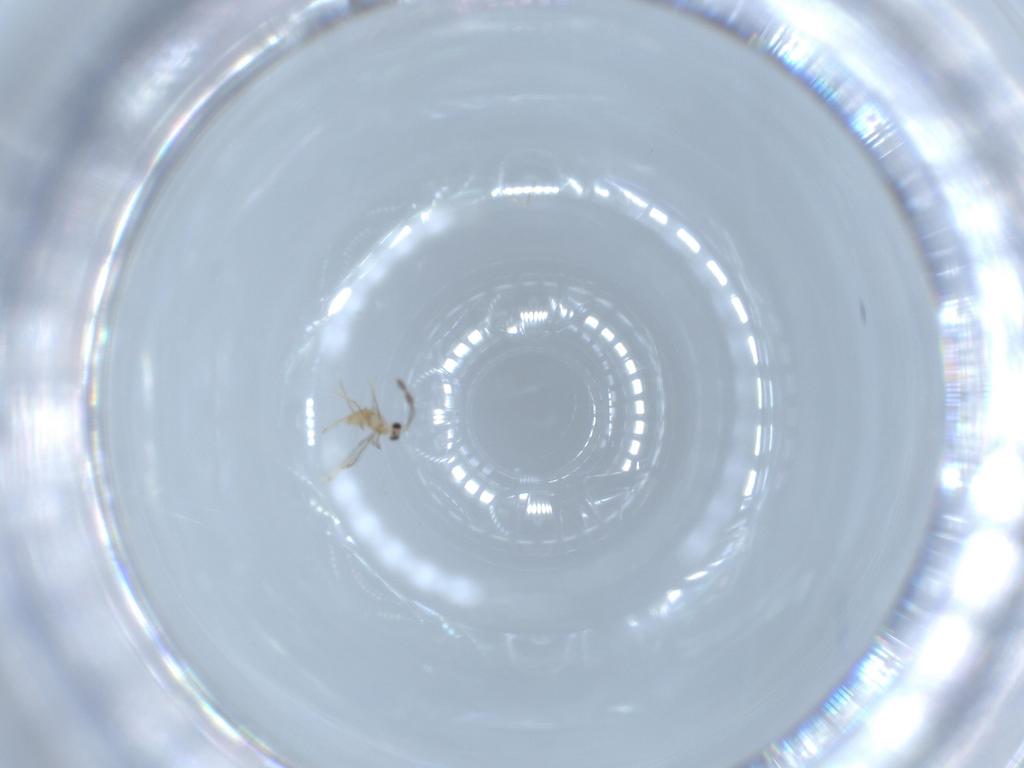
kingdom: Animalia
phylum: Arthropoda
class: Insecta
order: Hymenoptera
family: Mymaridae
